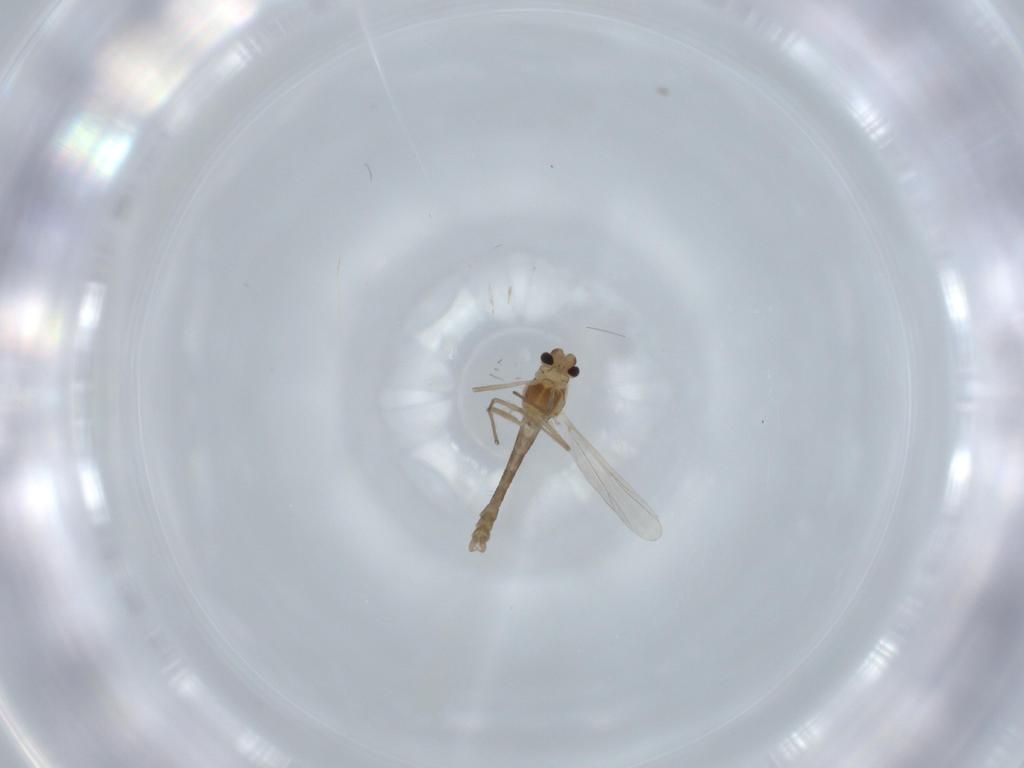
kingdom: Animalia
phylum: Arthropoda
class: Insecta
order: Diptera
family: Chironomidae
